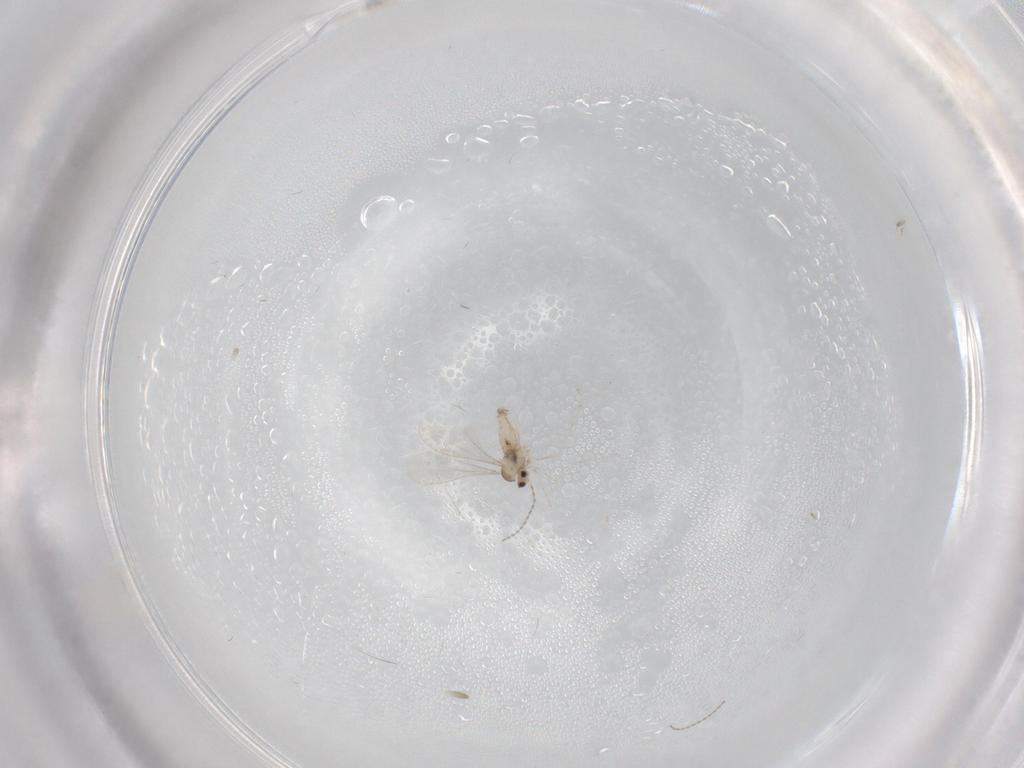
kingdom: Animalia
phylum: Arthropoda
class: Insecta
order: Diptera
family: Cecidomyiidae
